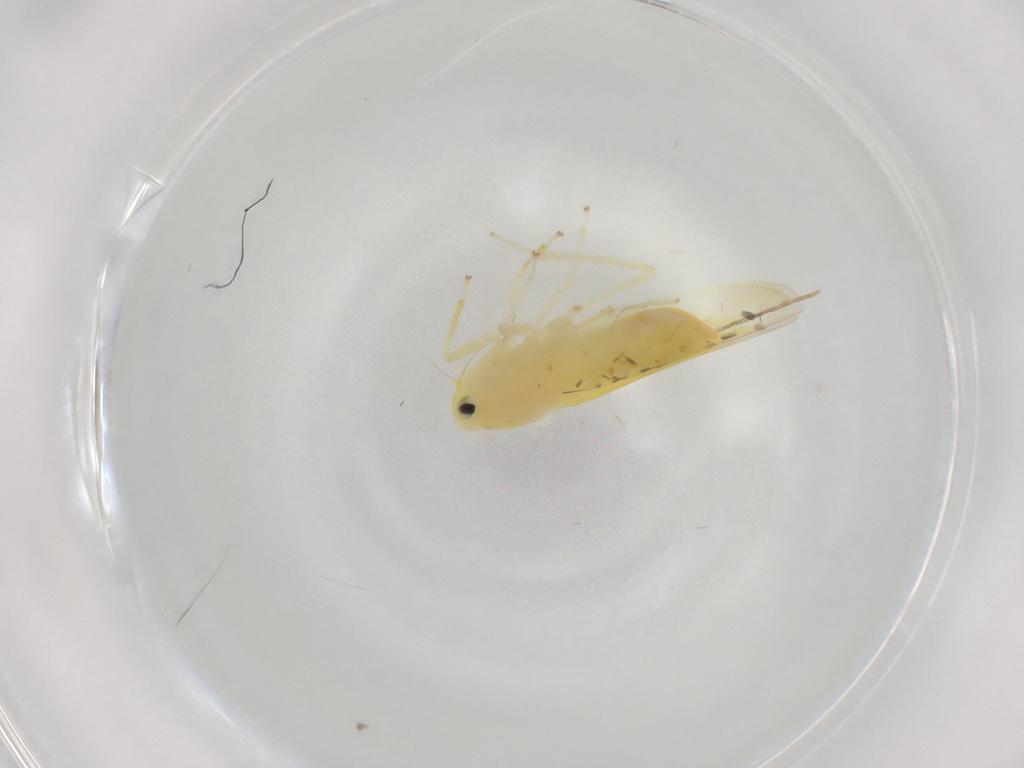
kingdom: Animalia
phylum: Arthropoda
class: Insecta
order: Hemiptera
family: Cicadellidae
